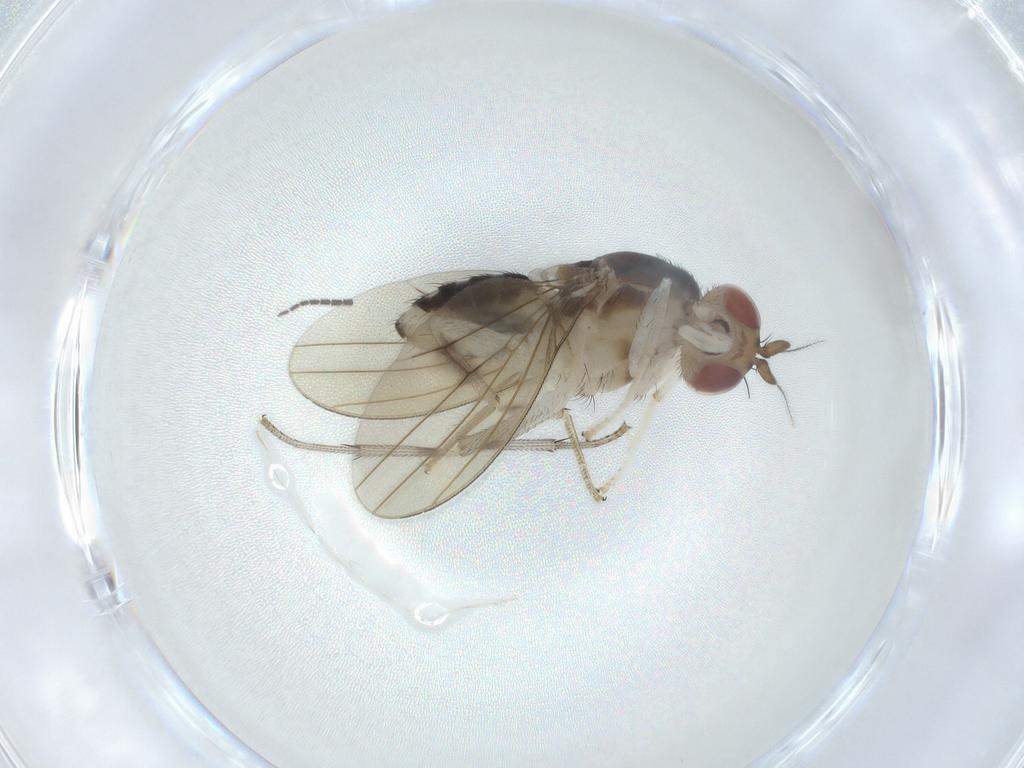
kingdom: Animalia
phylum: Arthropoda
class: Insecta
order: Diptera
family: Lauxaniidae
